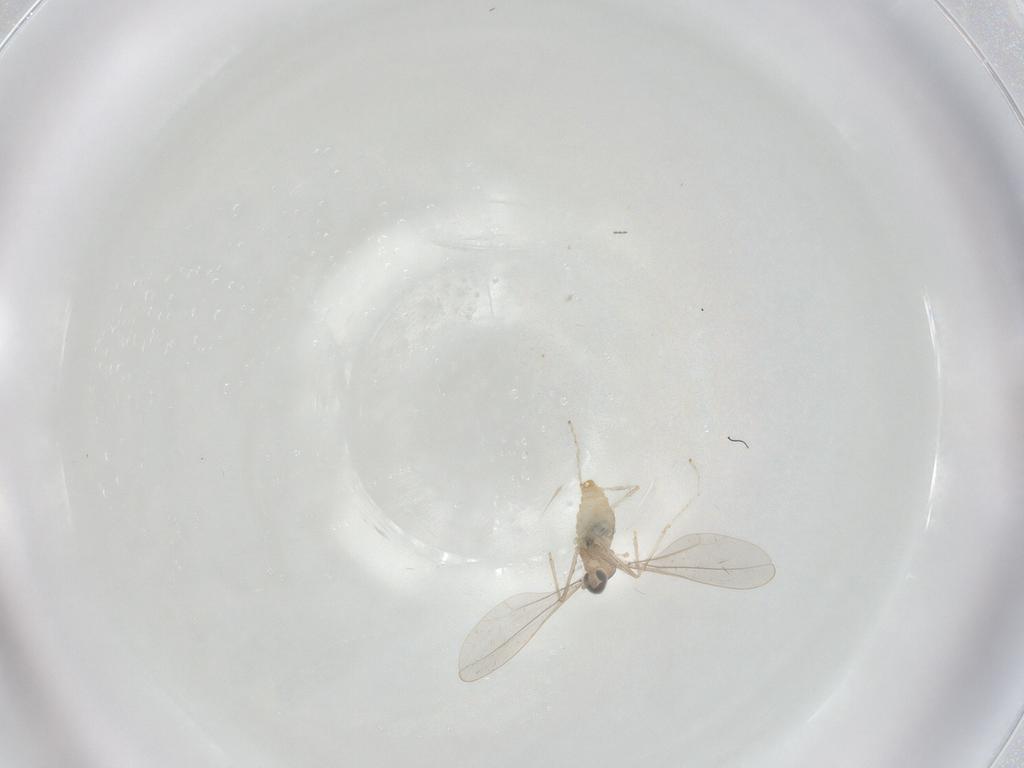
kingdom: Animalia
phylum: Arthropoda
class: Insecta
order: Diptera
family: Cecidomyiidae
